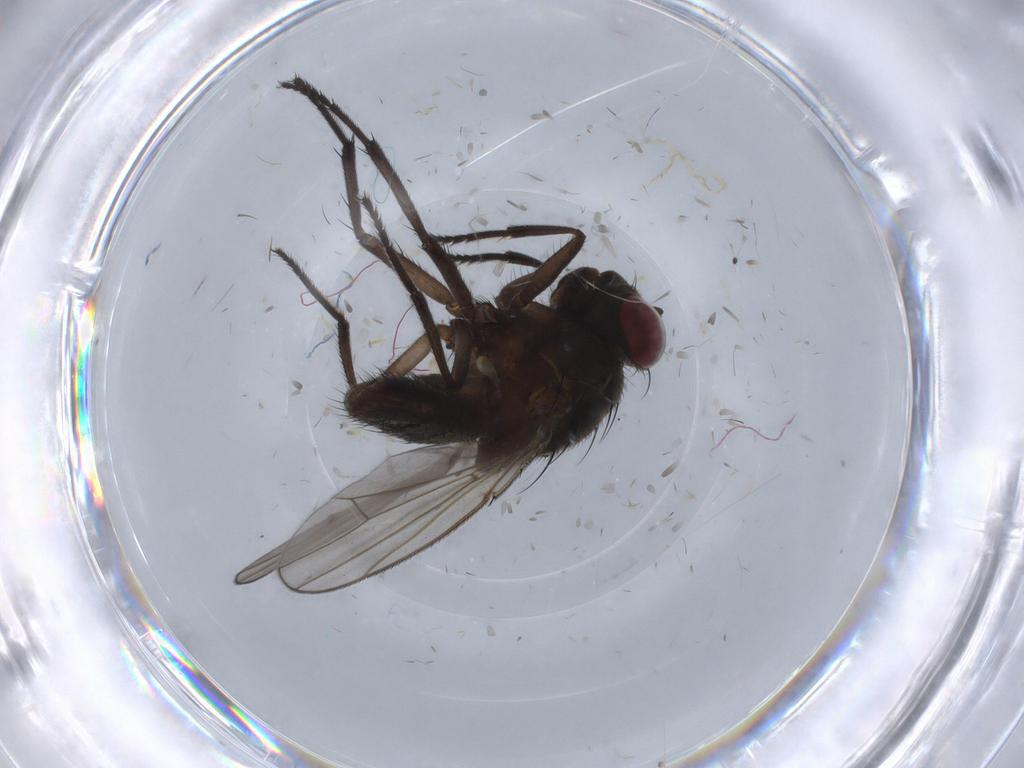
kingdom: Animalia
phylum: Arthropoda
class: Insecta
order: Diptera
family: Ephydridae
